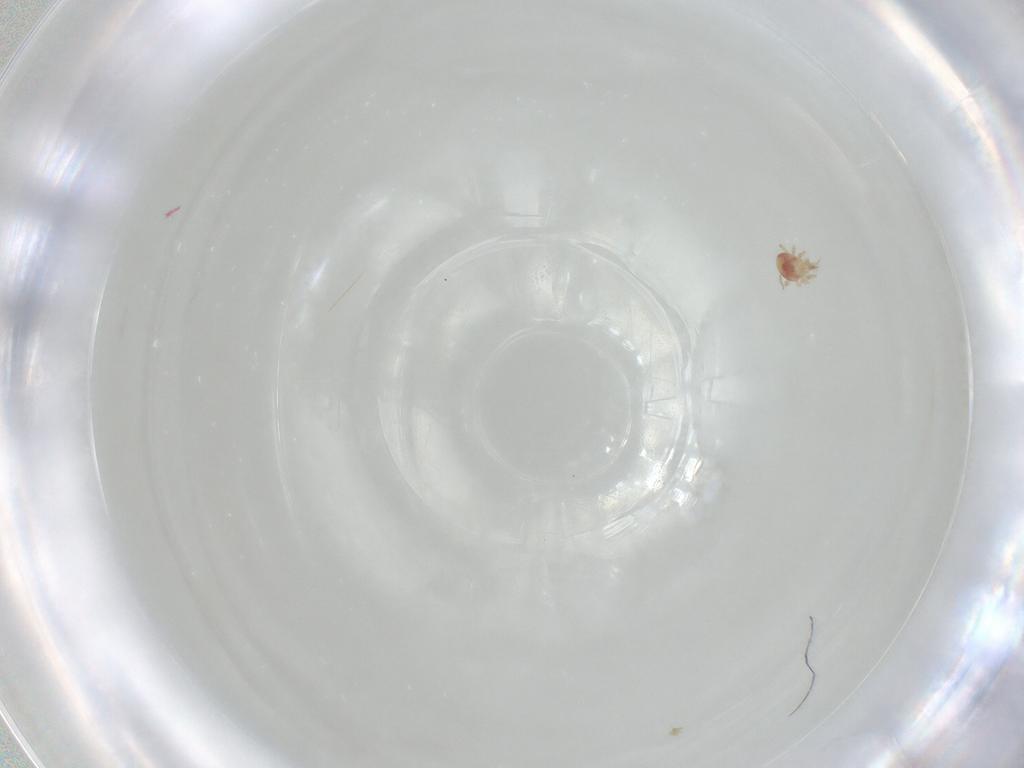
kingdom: Animalia
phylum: Arthropoda
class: Arachnida
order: Mesostigmata
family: Phytoseiidae
